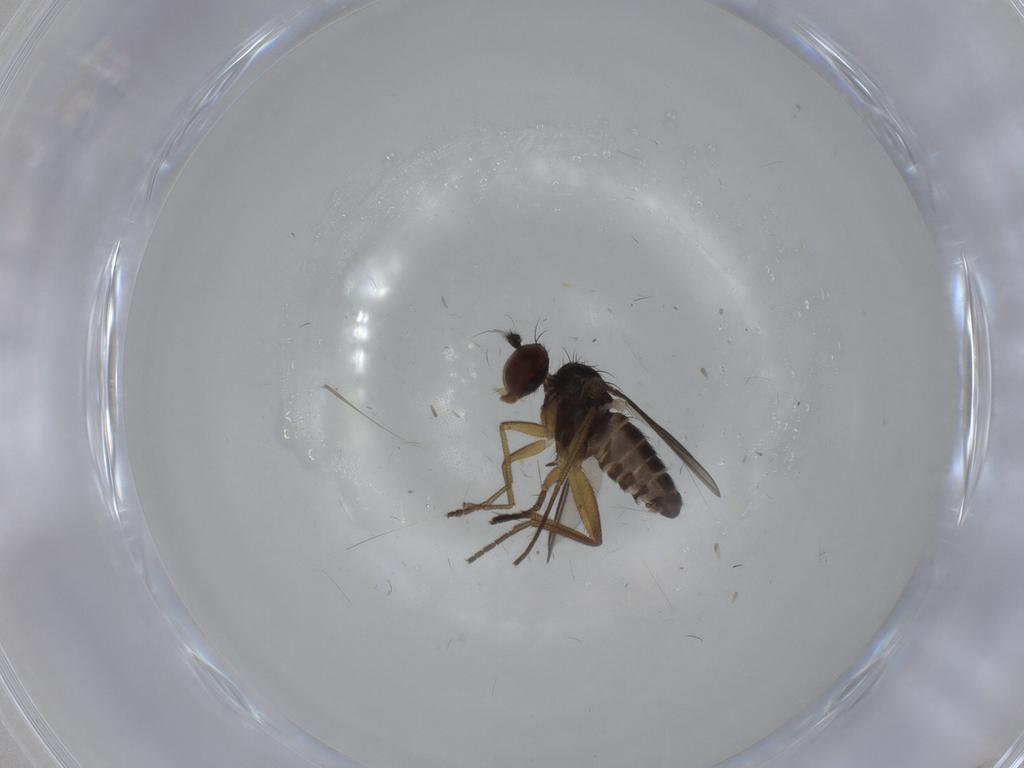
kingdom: Animalia
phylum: Arthropoda
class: Insecta
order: Diptera
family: Dolichopodidae
